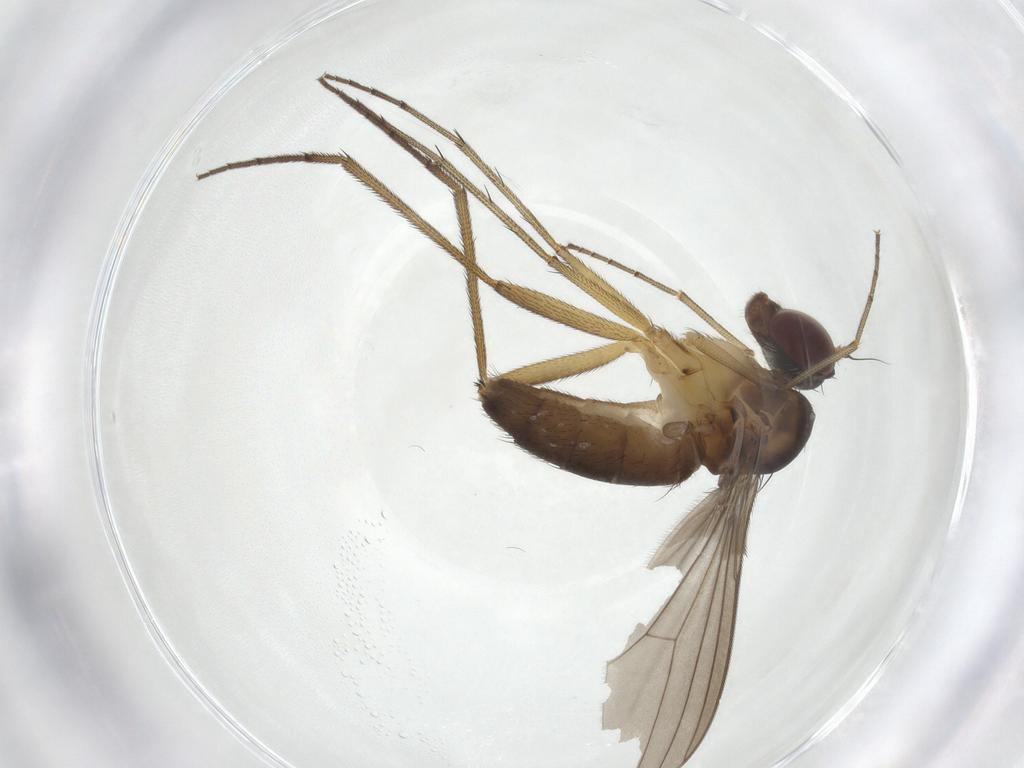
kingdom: Animalia
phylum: Arthropoda
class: Insecta
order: Diptera
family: Dolichopodidae
